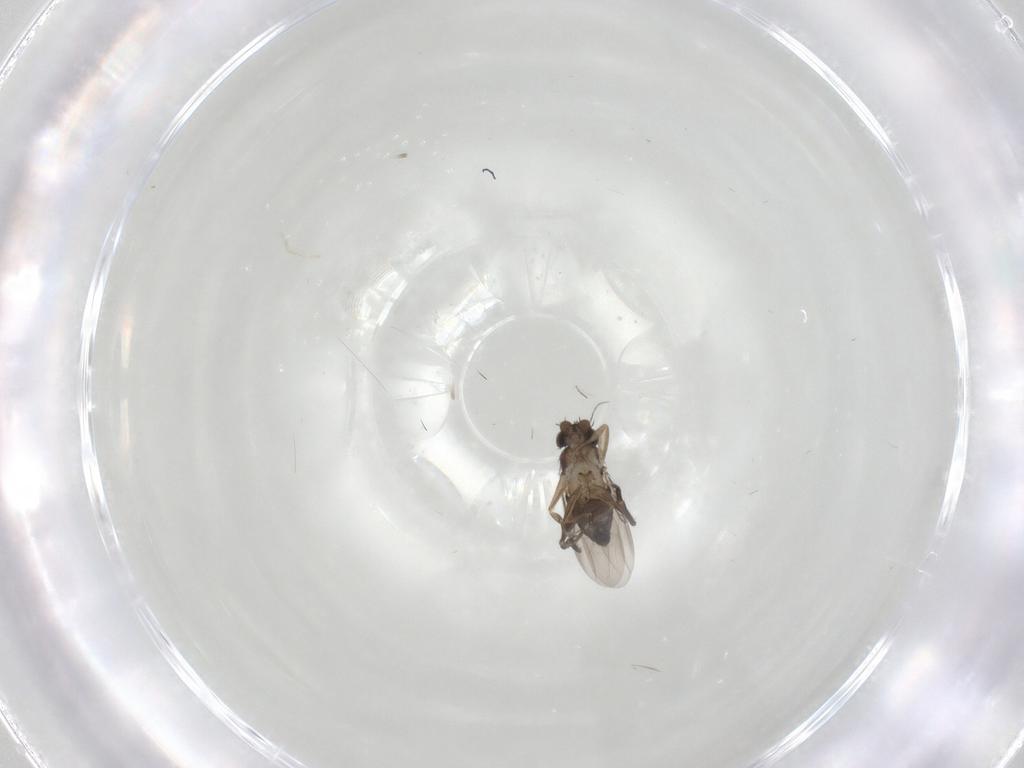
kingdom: Animalia
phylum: Arthropoda
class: Insecta
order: Diptera
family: Phoridae
